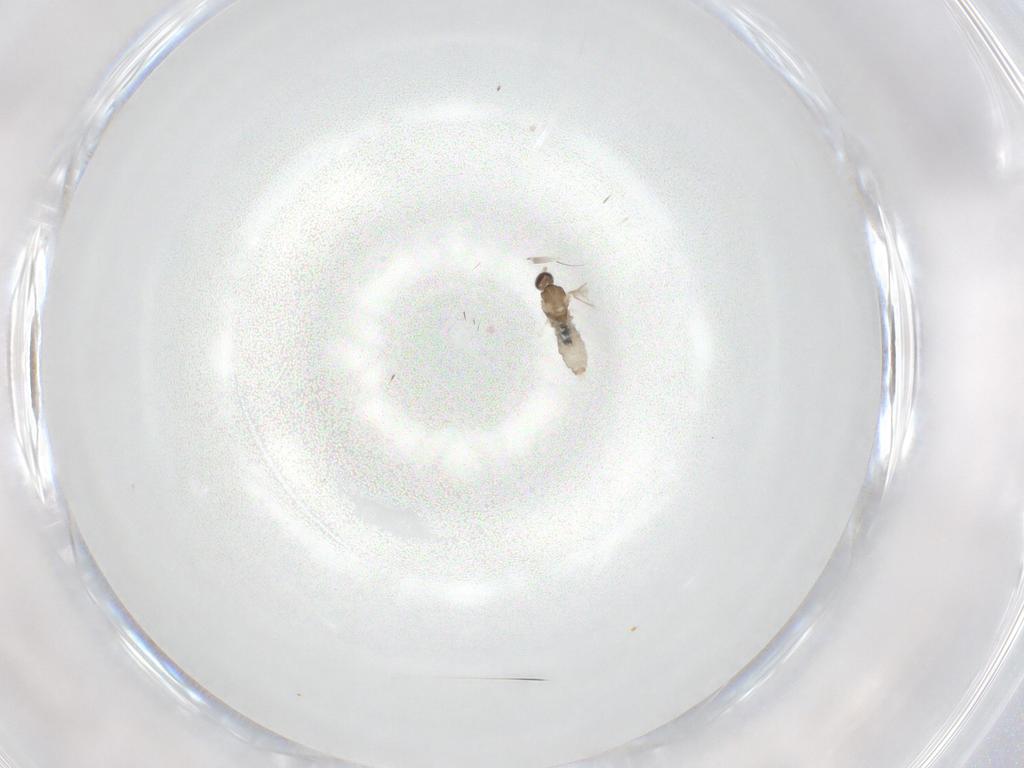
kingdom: Animalia
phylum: Arthropoda
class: Insecta
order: Diptera
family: Cecidomyiidae
